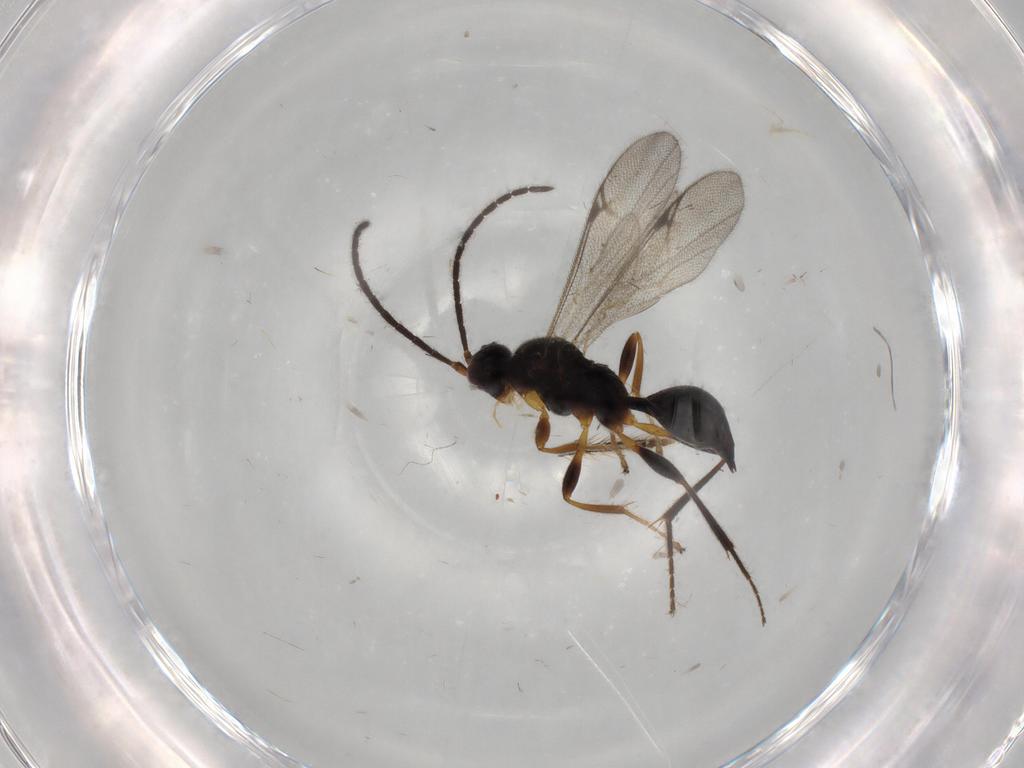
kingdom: Animalia
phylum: Arthropoda
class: Insecta
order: Hymenoptera
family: Proctotrupidae
